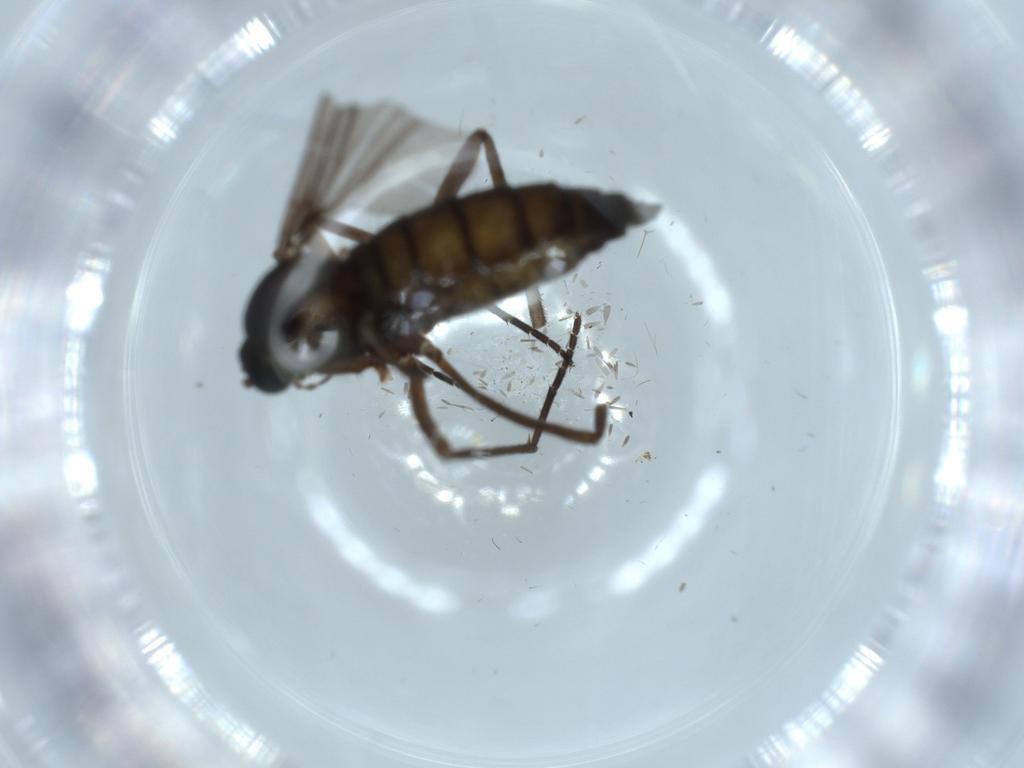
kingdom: Animalia
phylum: Arthropoda
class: Insecta
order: Diptera
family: Sciaridae
